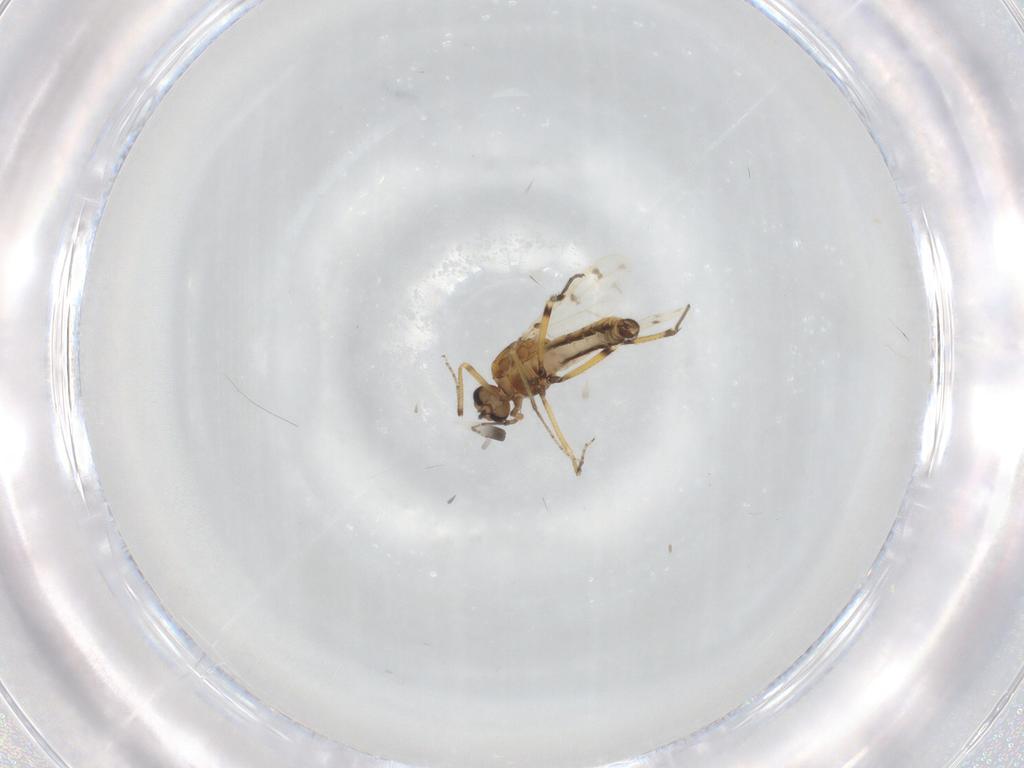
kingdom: Animalia
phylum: Arthropoda
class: Insecta
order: Diptera
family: Ceratopogonidae
